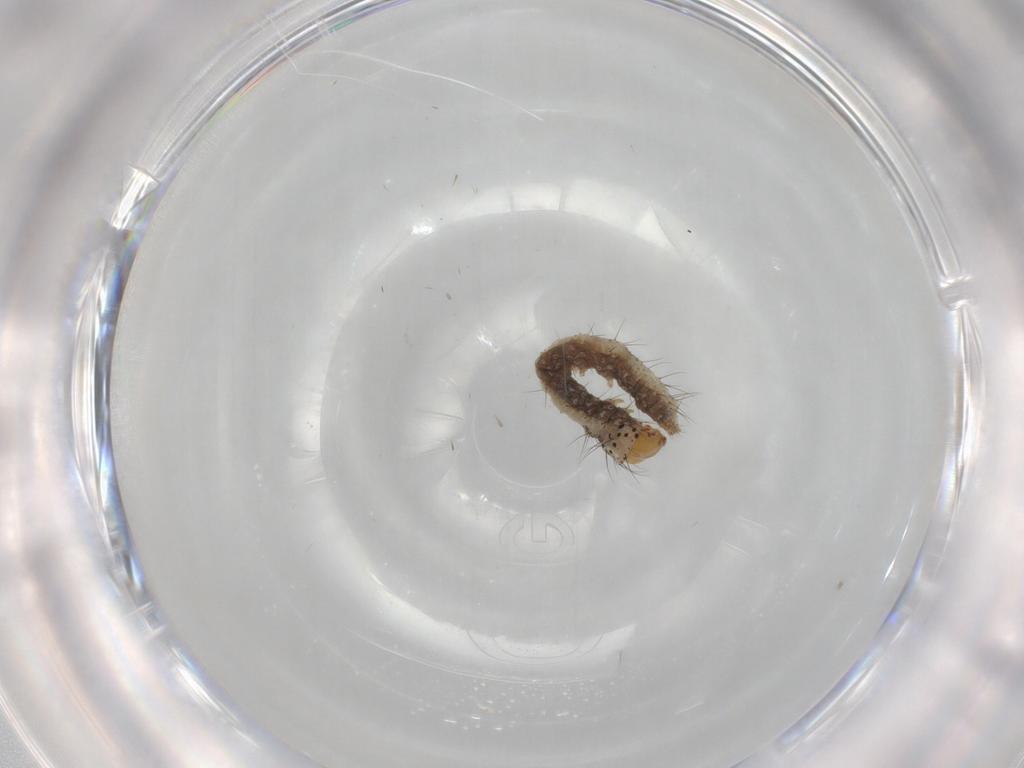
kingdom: Animalia
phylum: Arthropoda
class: Insecta
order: Lepidoptera
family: Bucculatricidae
